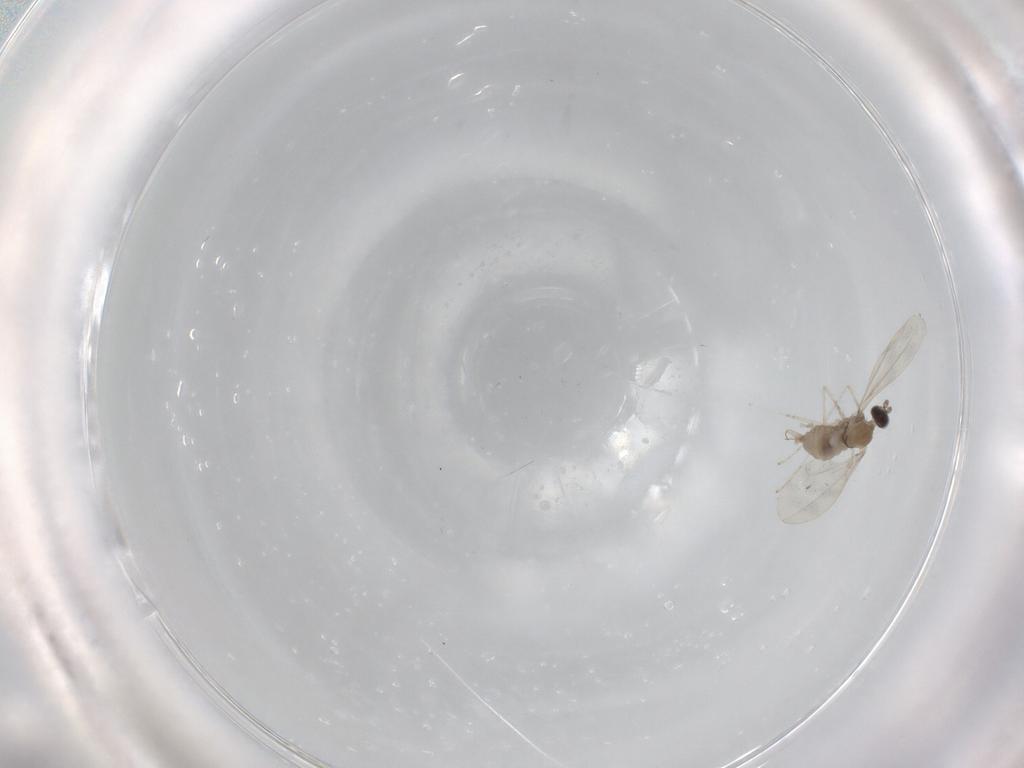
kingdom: Animalia
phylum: Arthropoda
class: Insecta
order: Diptera
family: Cecidomyiidae
